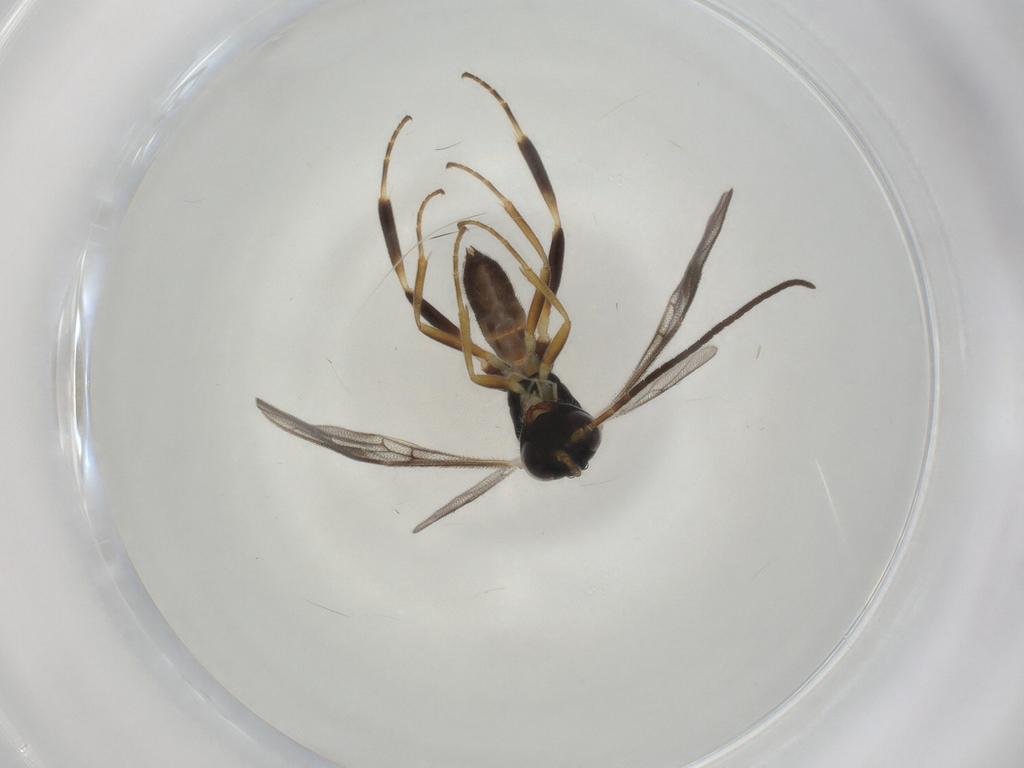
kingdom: Animalia
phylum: Arthropoda
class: Insecta
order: Hymenoptera
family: Ichneumonidae
